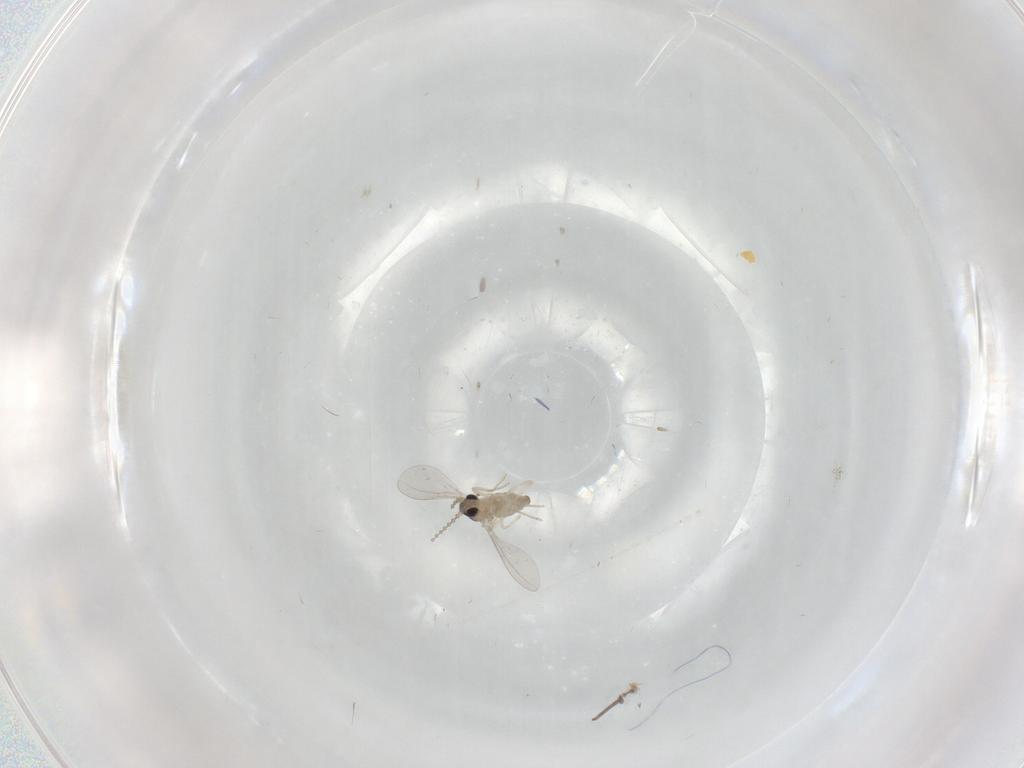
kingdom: Animalia
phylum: Arthropoda
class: Insecta
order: Diptera
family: Cecidomyiidae
